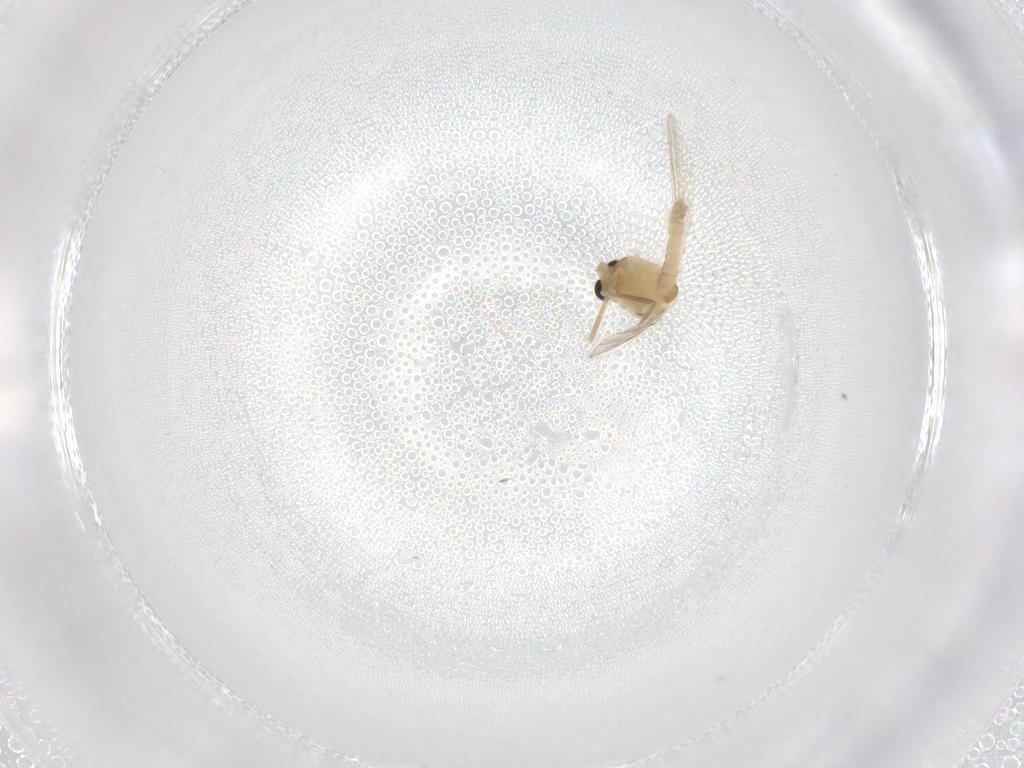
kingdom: Animalia
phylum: Arthropoda
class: Insecta
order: Diptera
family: Chironomidae
